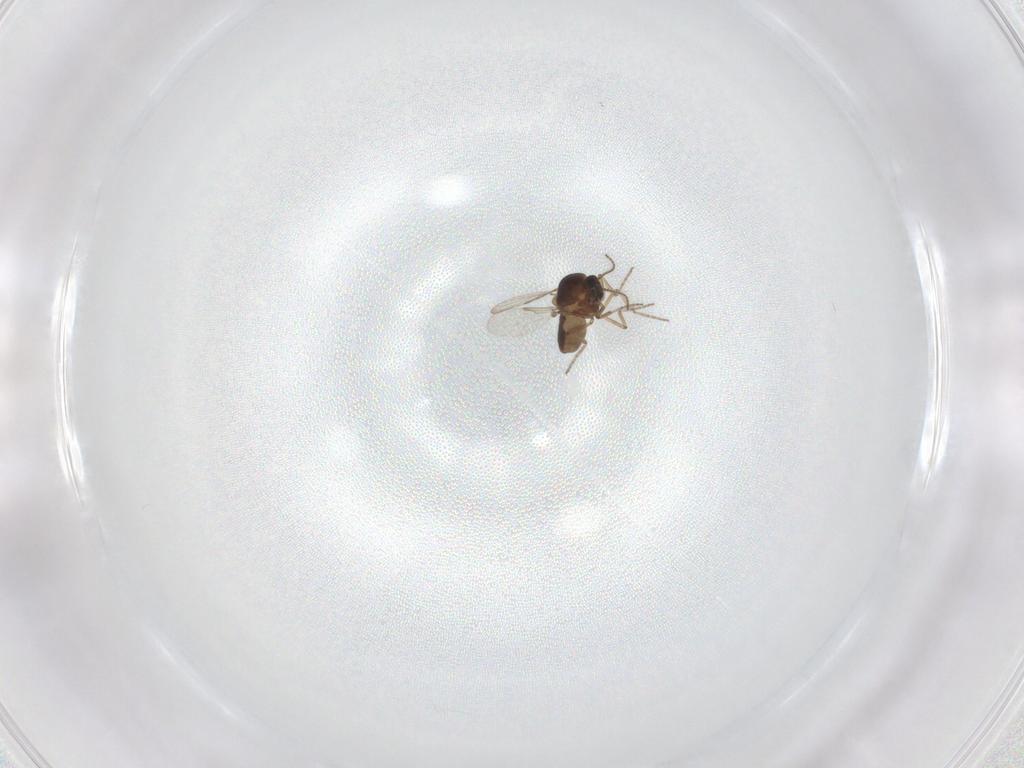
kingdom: Animalia
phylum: Arthropoda
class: Insecta
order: Diptera
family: Ceratopogonidae
